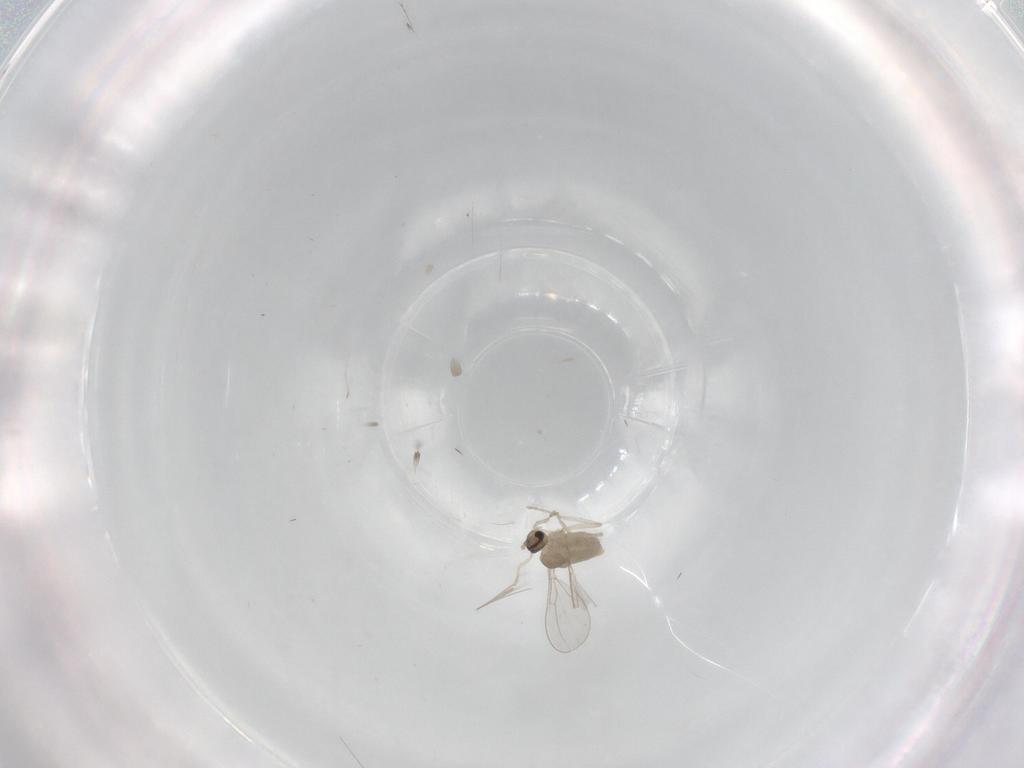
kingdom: Animalia
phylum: Arthropoda
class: Insecta
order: Diptera
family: Cecidomyiidae
